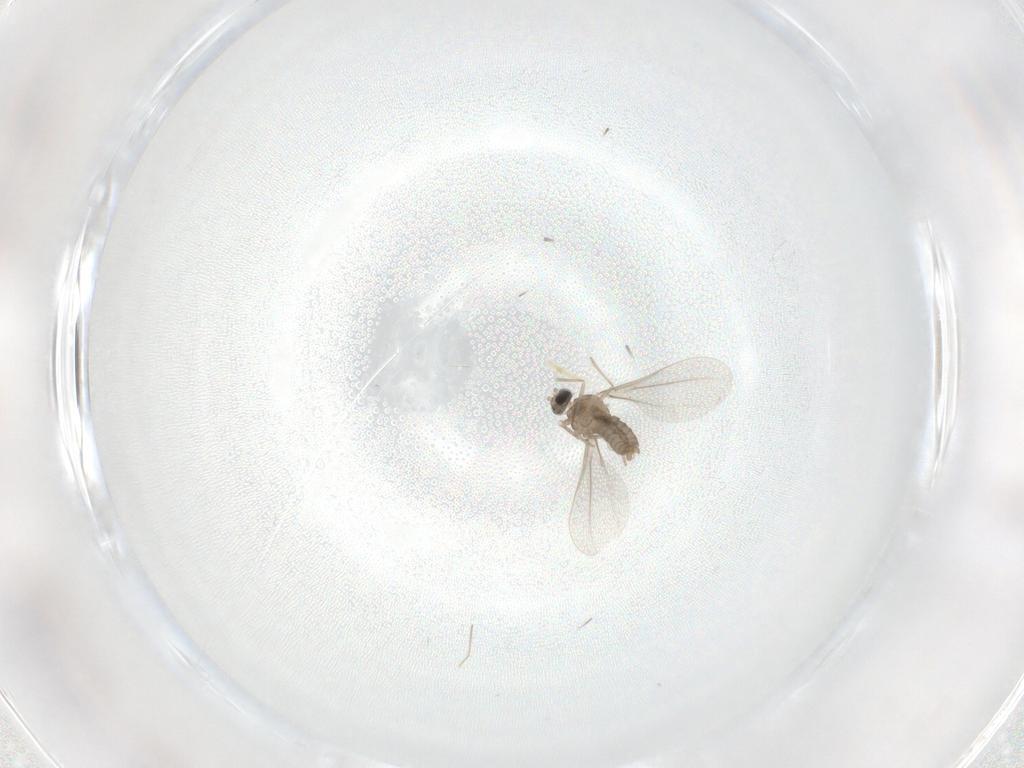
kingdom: Animalia
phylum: Arthropoda
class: Insecta
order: Diptera
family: Cecidomyiidae
